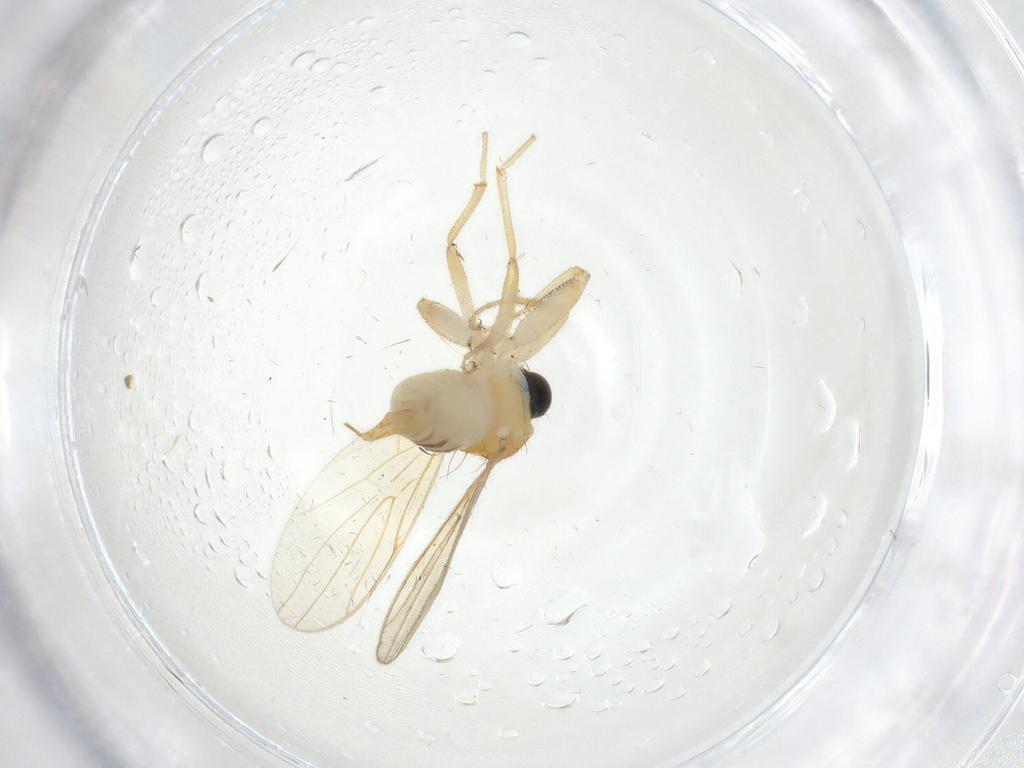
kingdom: Animalia
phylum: Arthropoda
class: Insecta
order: Diptera
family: Hybotidae
